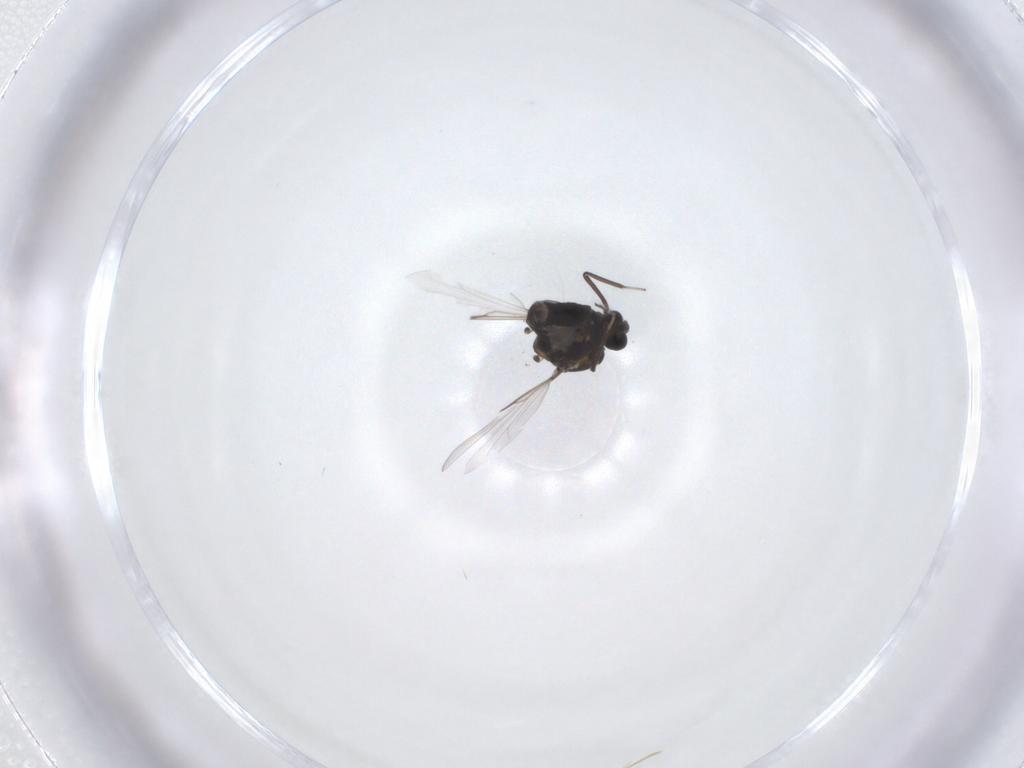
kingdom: Animalia
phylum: Arthropoda
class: Insecta
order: Diptera
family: Ceratopogonidae
